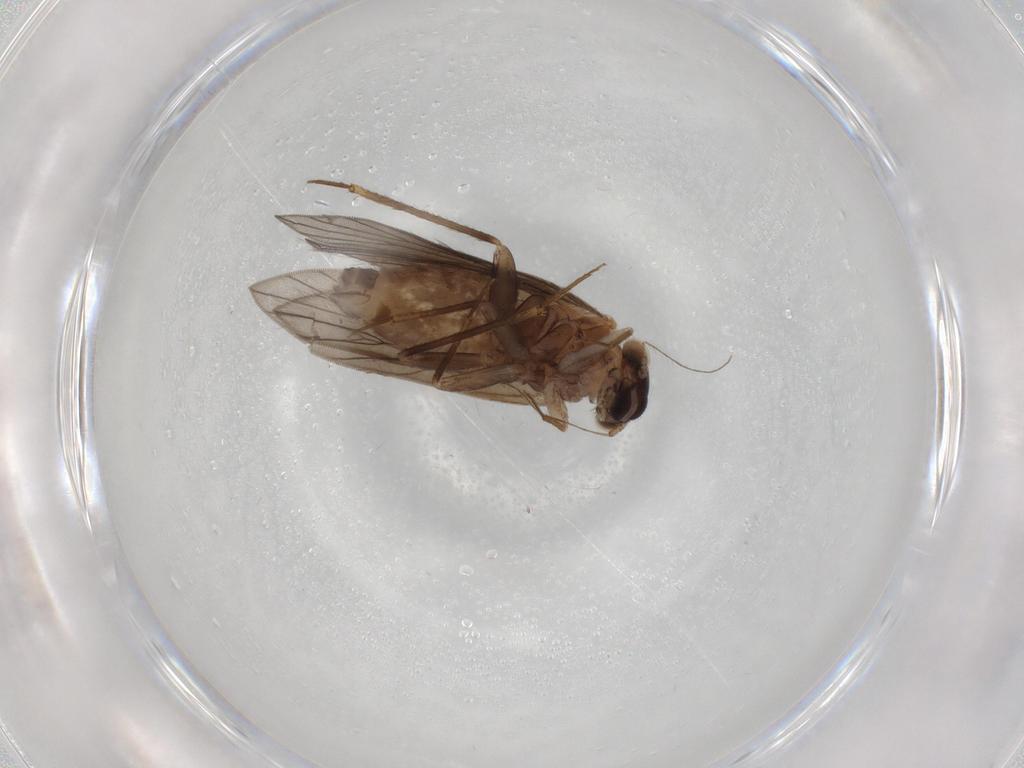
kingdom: Animalia
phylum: Arthropoda
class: Insecta
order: Psocodea
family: Lepidopsocidae
